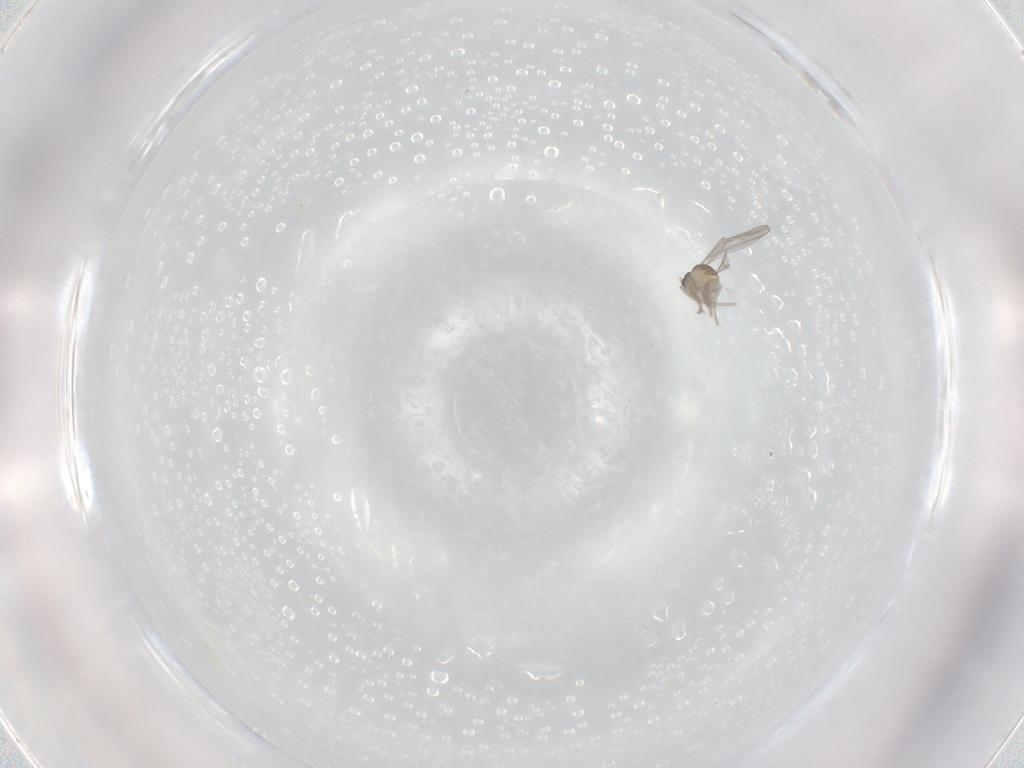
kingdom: Animalia
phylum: Arthropoda
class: Insecta
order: Diptera
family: Cecidomyiidae
